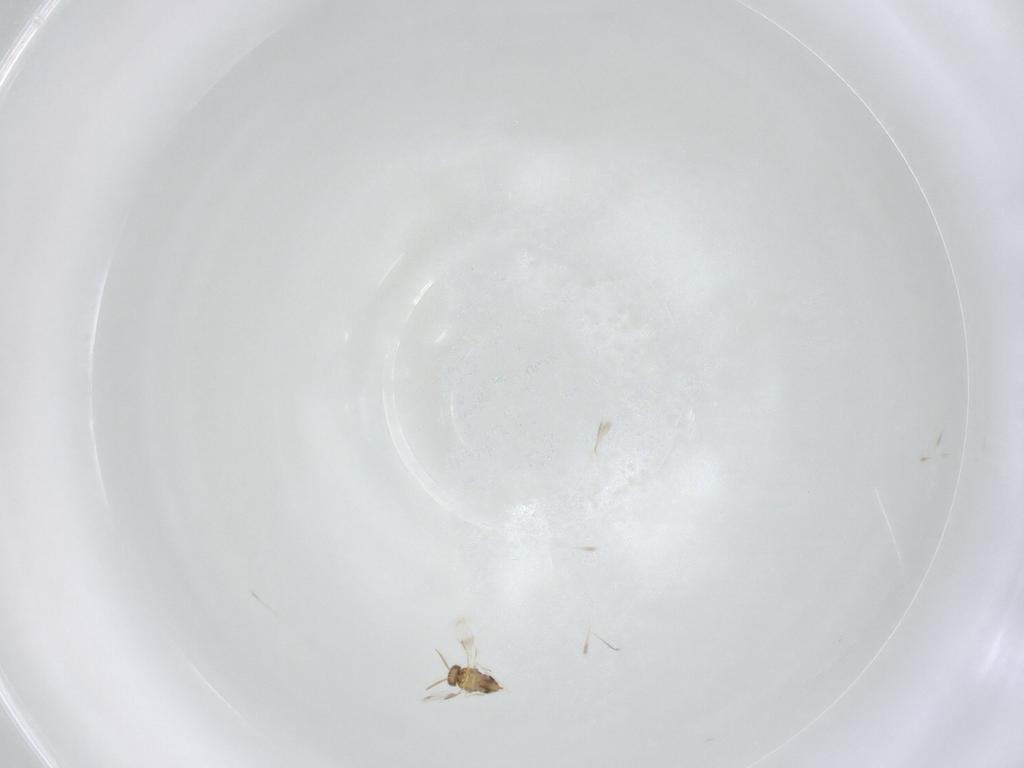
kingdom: Animalia
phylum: Arthropoda
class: Insecta
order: Hymenoptera
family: Aphelinidae
